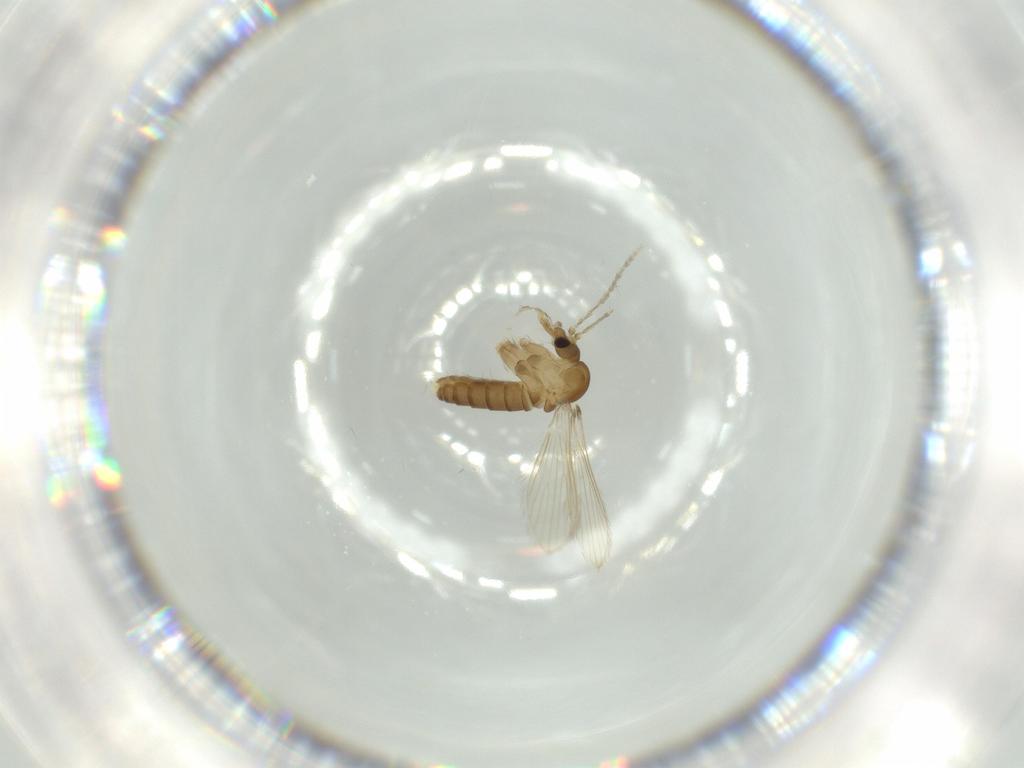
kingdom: Animalia
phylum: Arthropoda
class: Insecta
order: Diptera
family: Psychodidae
